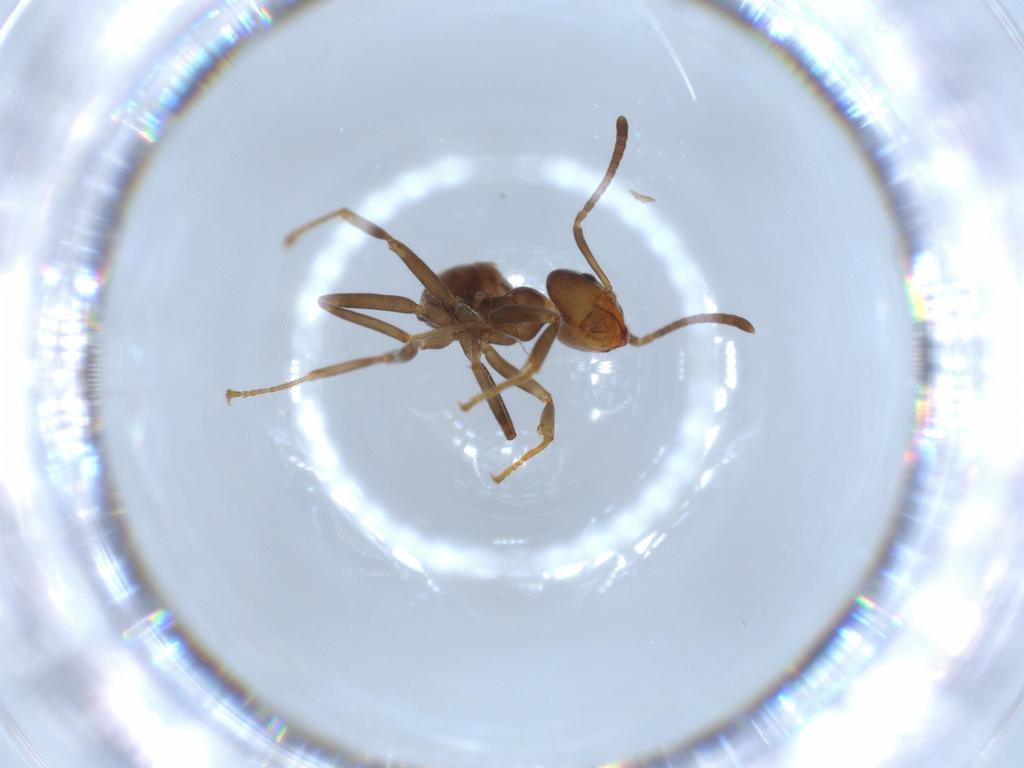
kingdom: Animalia
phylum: Arthropoda
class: Insecta
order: Hymenoptera
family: Formicidae
